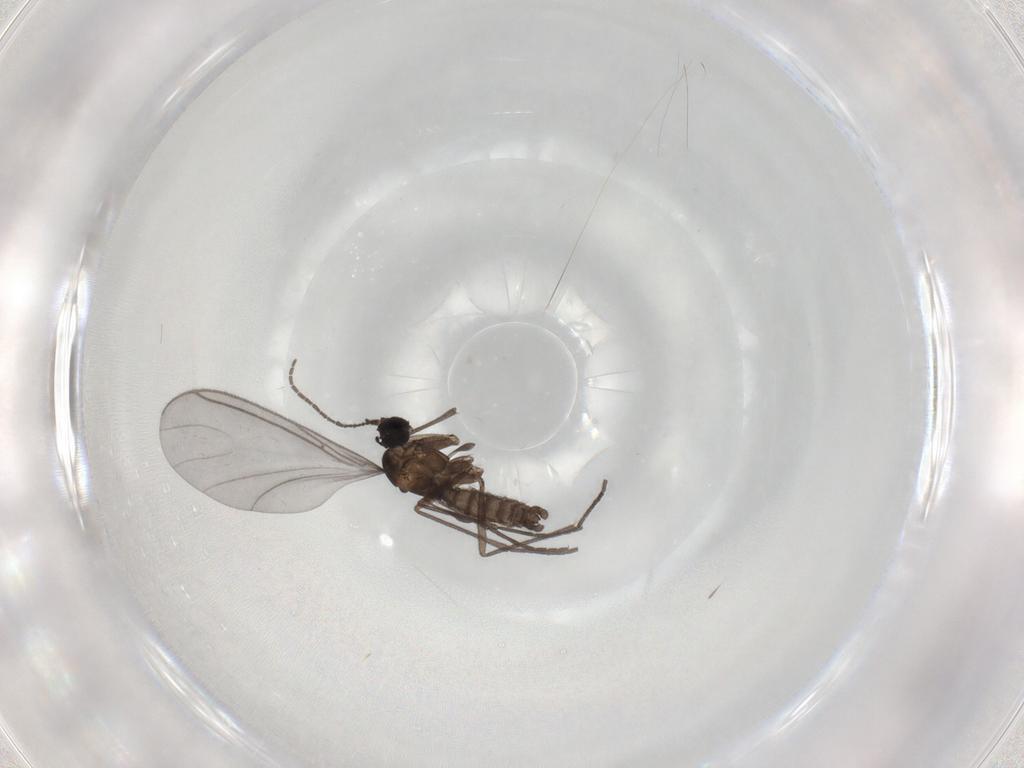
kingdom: Animalia
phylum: Arthropoda
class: Insecta
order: Diptera
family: Sciaridae
